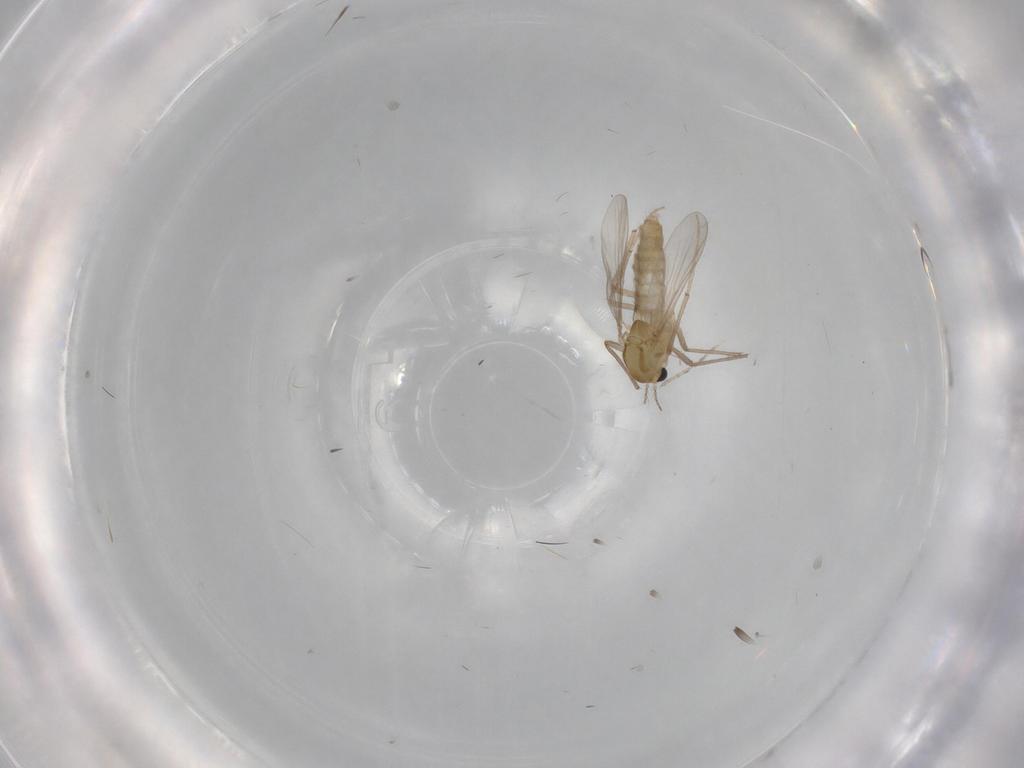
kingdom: Animalia
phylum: Arthropoda
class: Insecta
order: Diptera
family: Chironomidae
